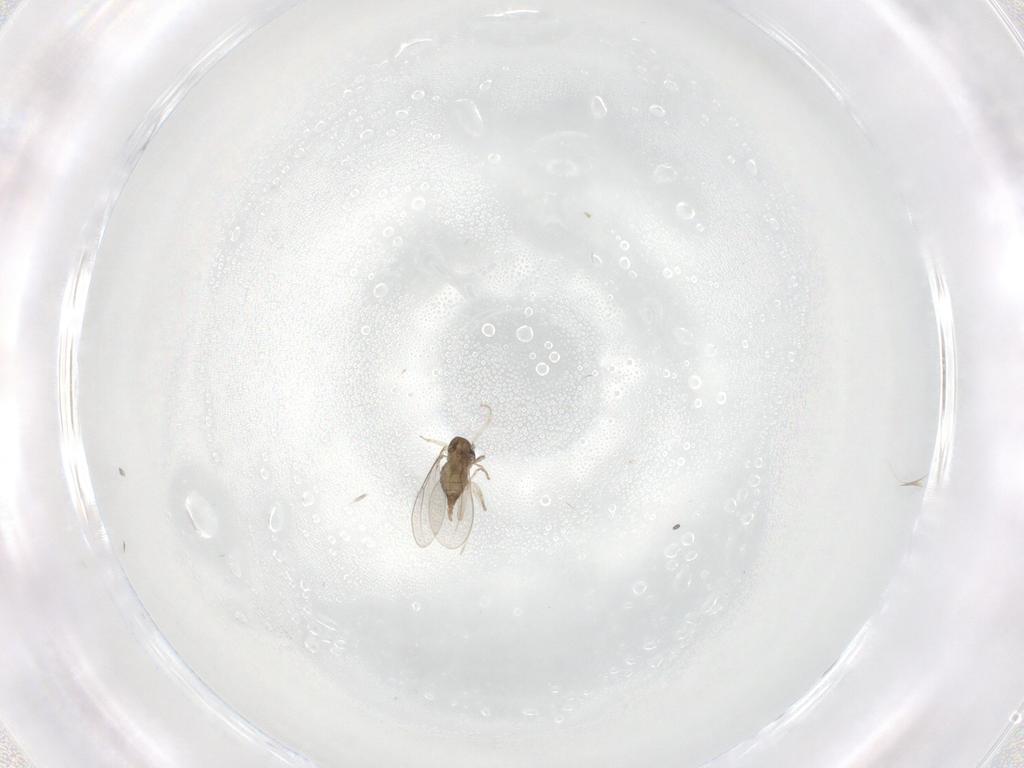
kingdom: Animalia
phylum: Arthropoda
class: Insecta
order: Diptera
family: Cecidomyiidae
